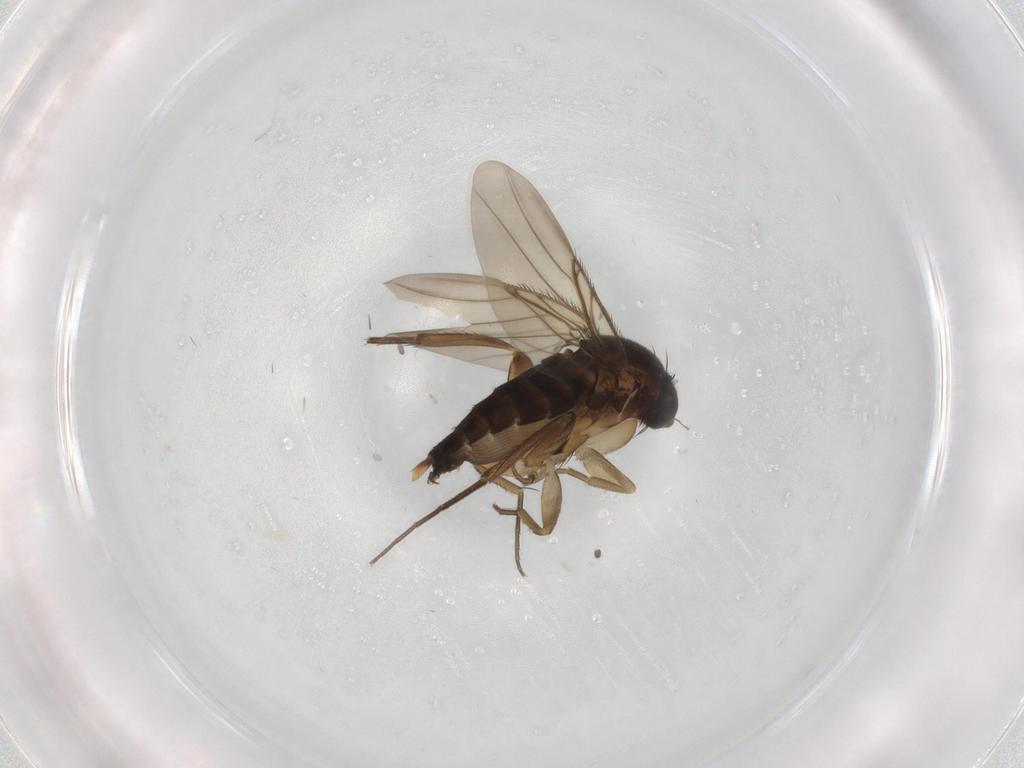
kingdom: Animalia
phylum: Arthropoda
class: Insecta
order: Diptera
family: Phoridae
